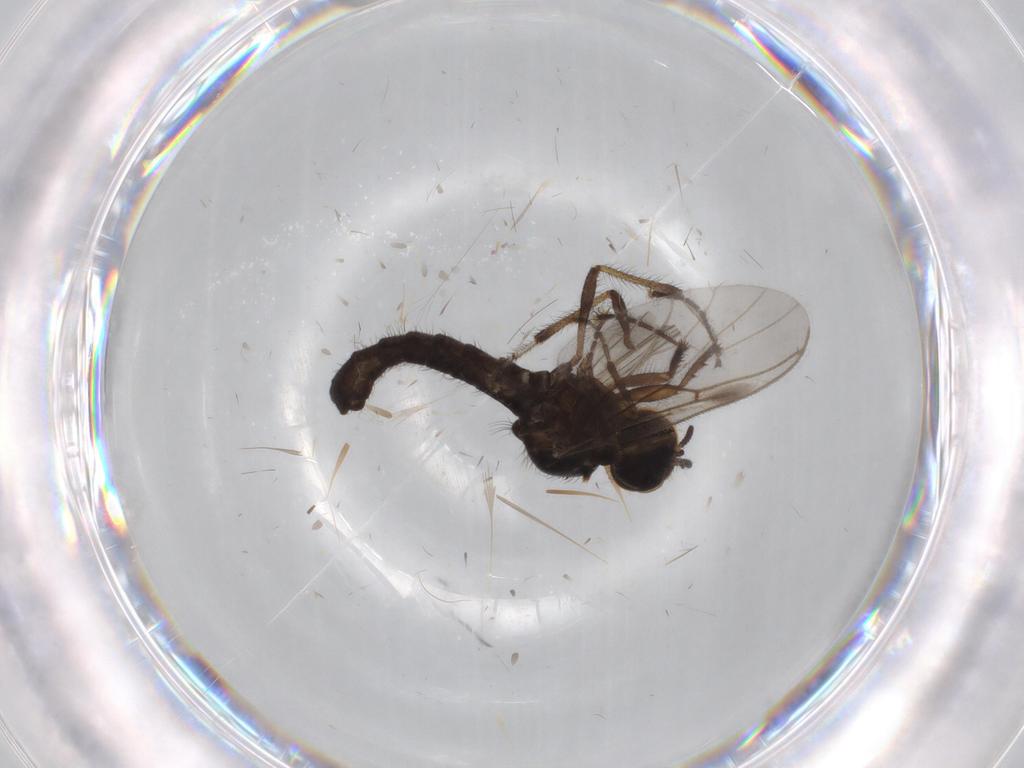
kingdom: Animalia
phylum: Arthropoda
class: Insecta
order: Diptera
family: Bibionidae
